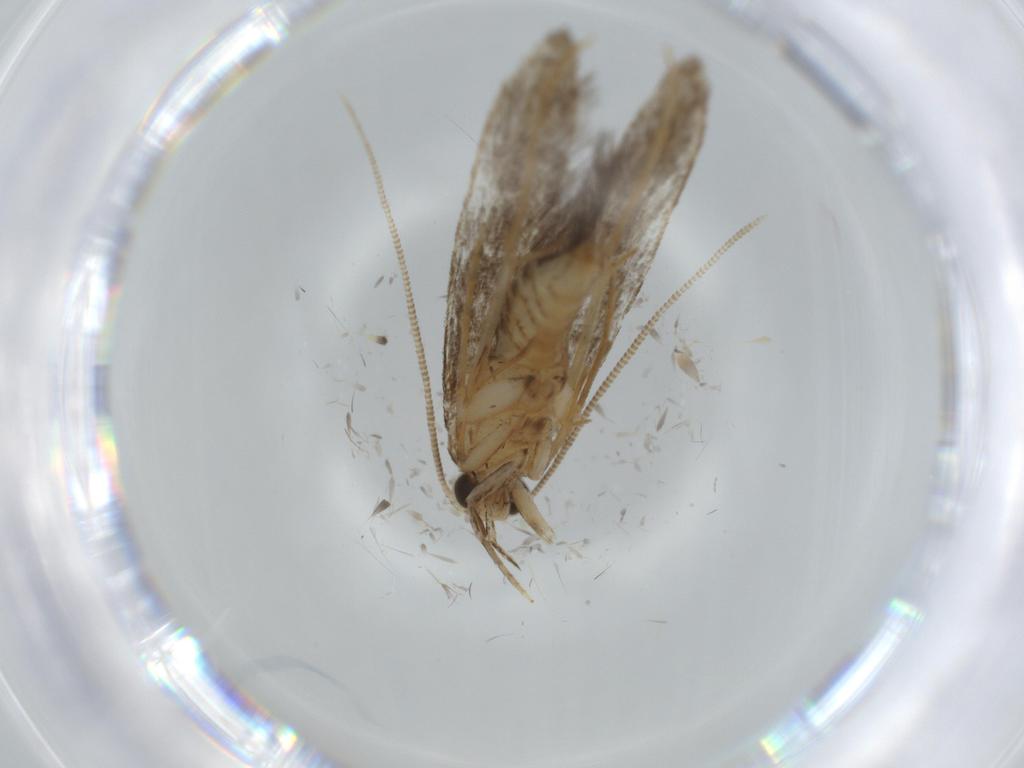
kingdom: Animalia
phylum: Arthropoda
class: Insecta
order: Lepidoptera
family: Tineidae
